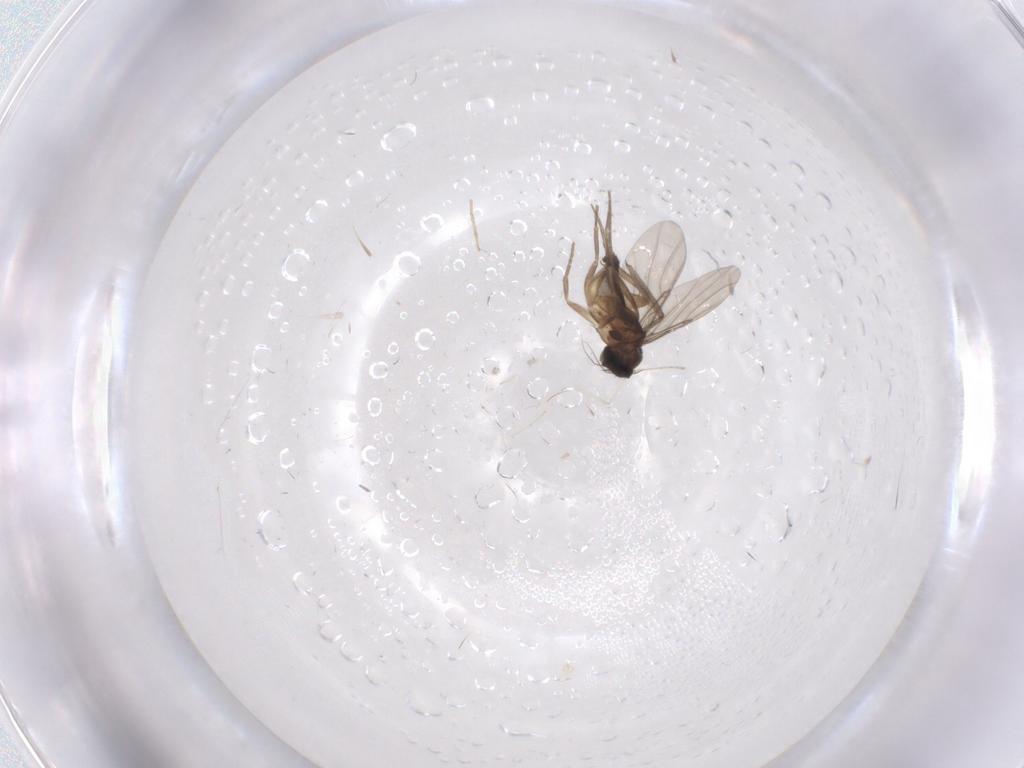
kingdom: Animalia
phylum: Arthropoda
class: Insecta
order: Diptera
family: Phoridae
